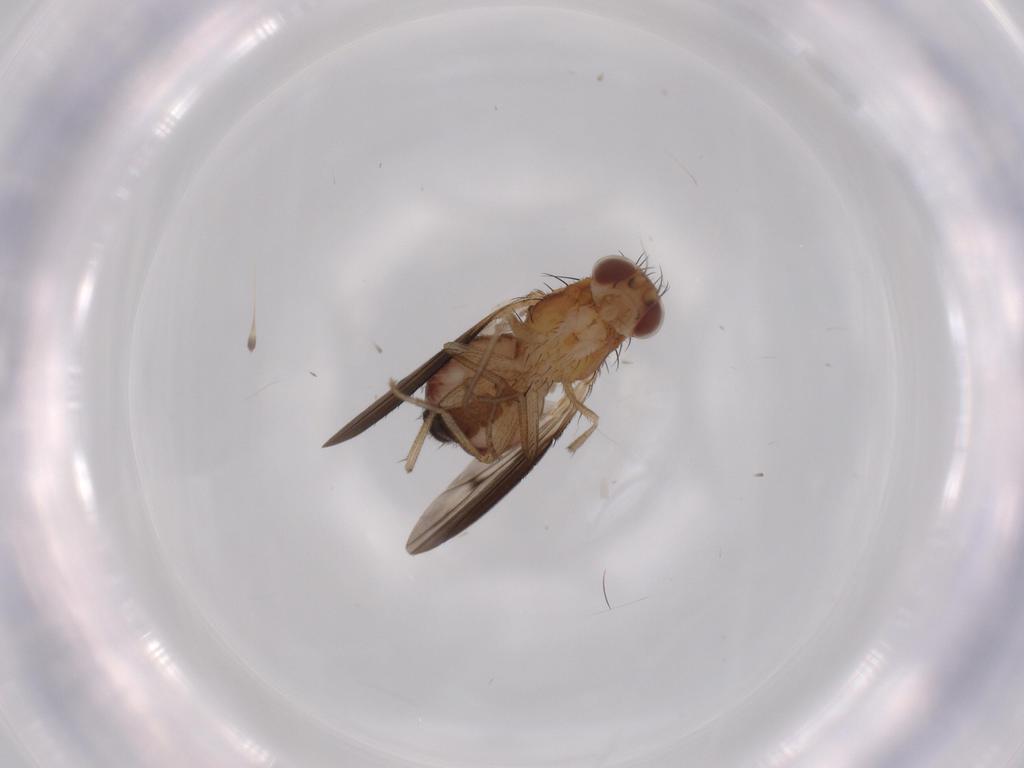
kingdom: Animalia
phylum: Arthropoda
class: Insecta
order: Diptera
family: Heleomyzidae
